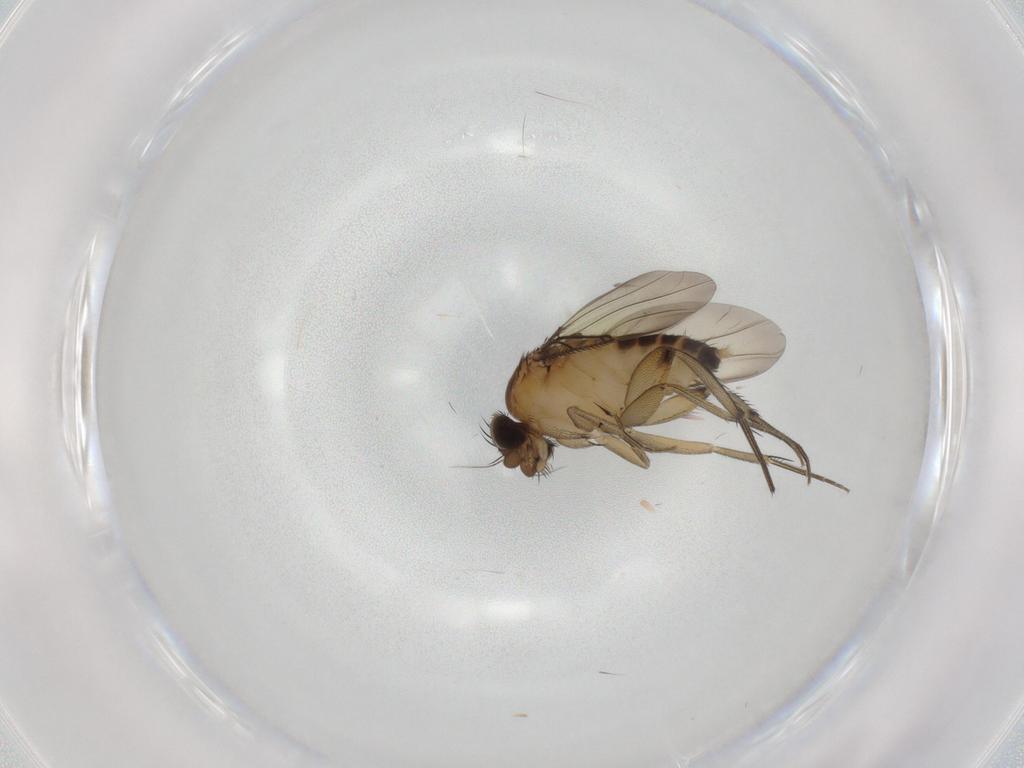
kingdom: Animalia
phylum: Arthropoda
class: Insecta
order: Diptera
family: Phoridae
